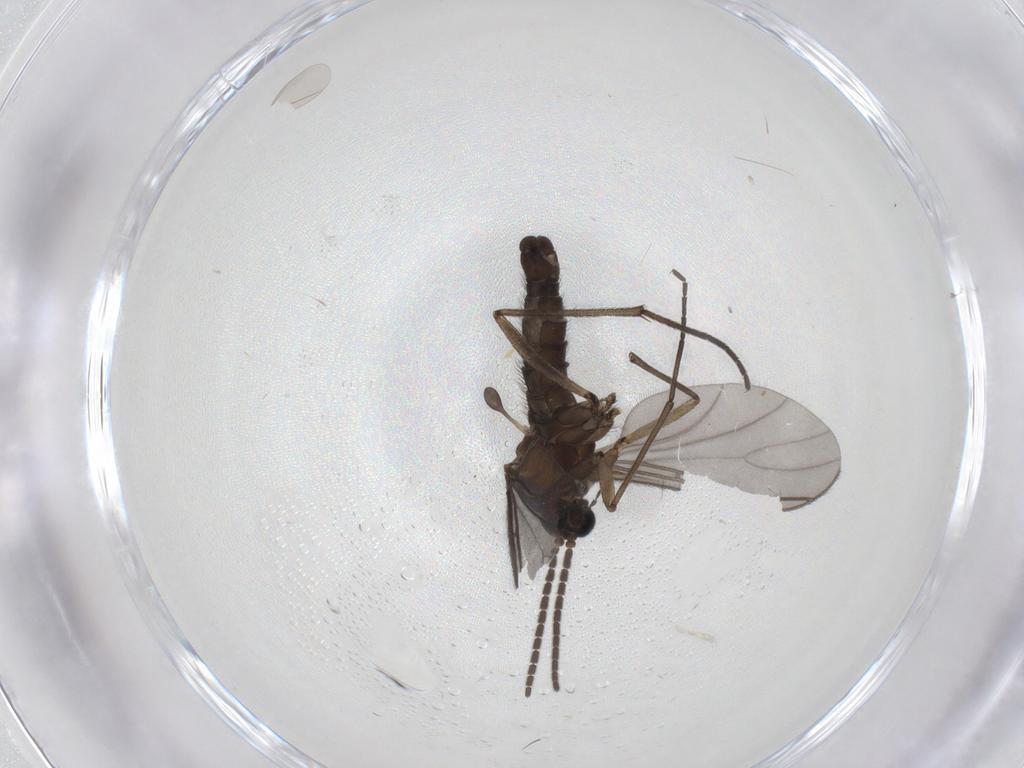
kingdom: Animalia
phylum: Arthropoda
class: Insecta
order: Diptera
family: Sciaridae
